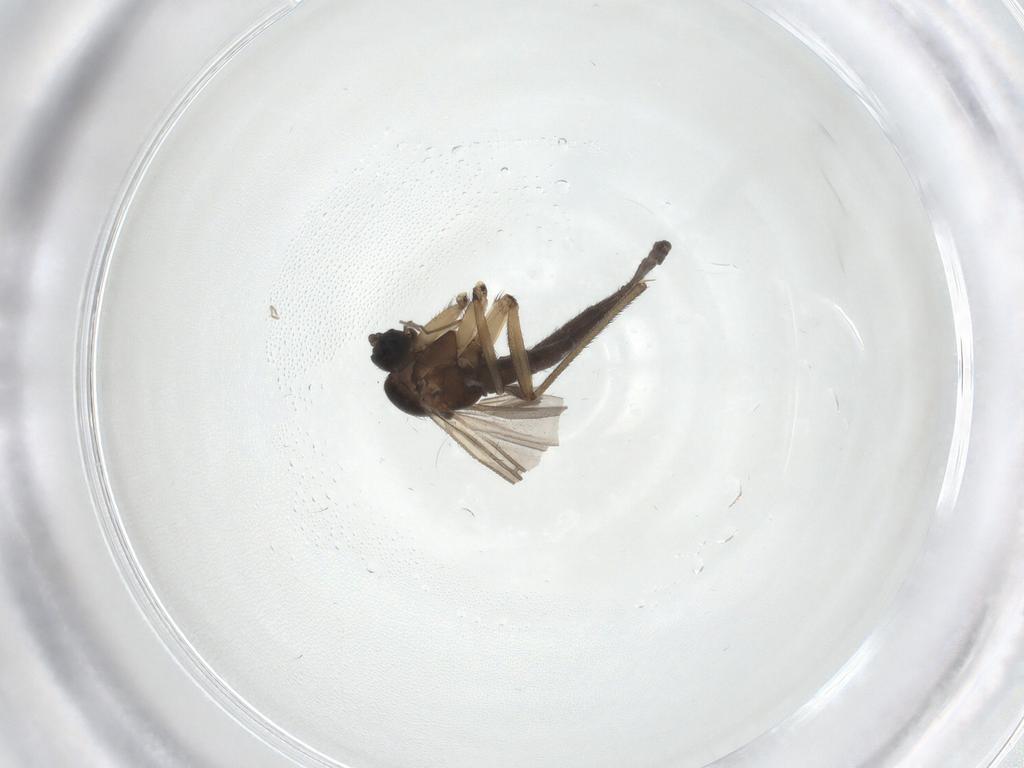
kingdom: Animalia
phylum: Arthropoda
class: Insecta
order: Diptera
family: Chironomidae
